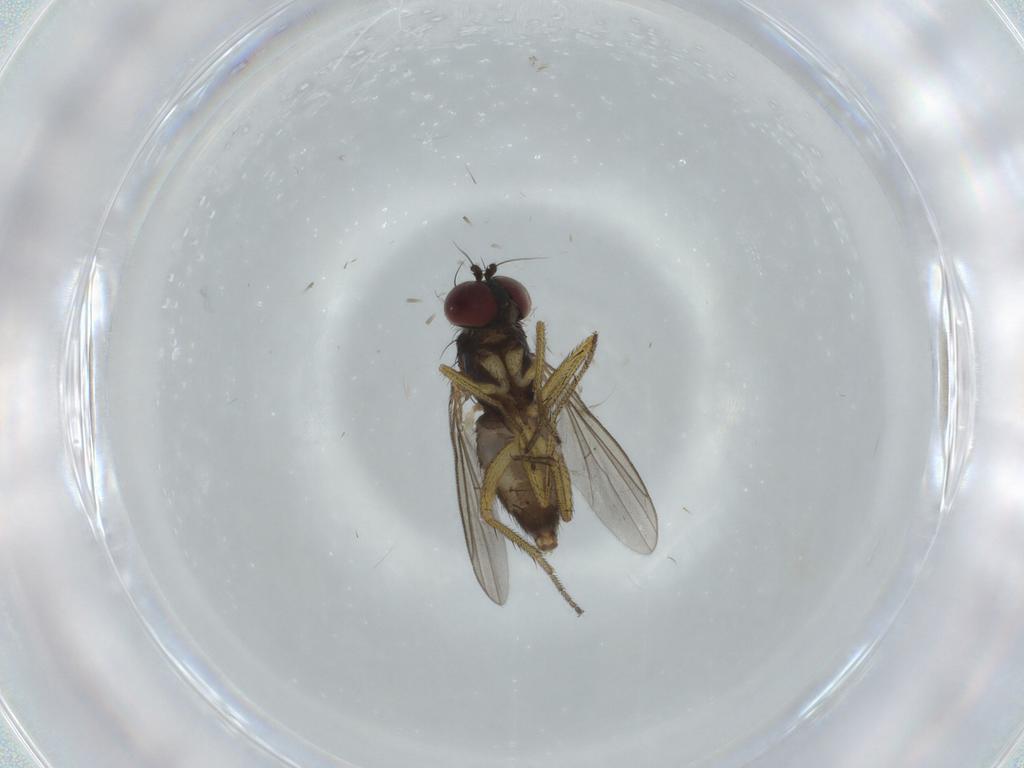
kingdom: Animalia
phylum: Arthropoda
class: Insecta
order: Diptera
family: Dolichopodidae
